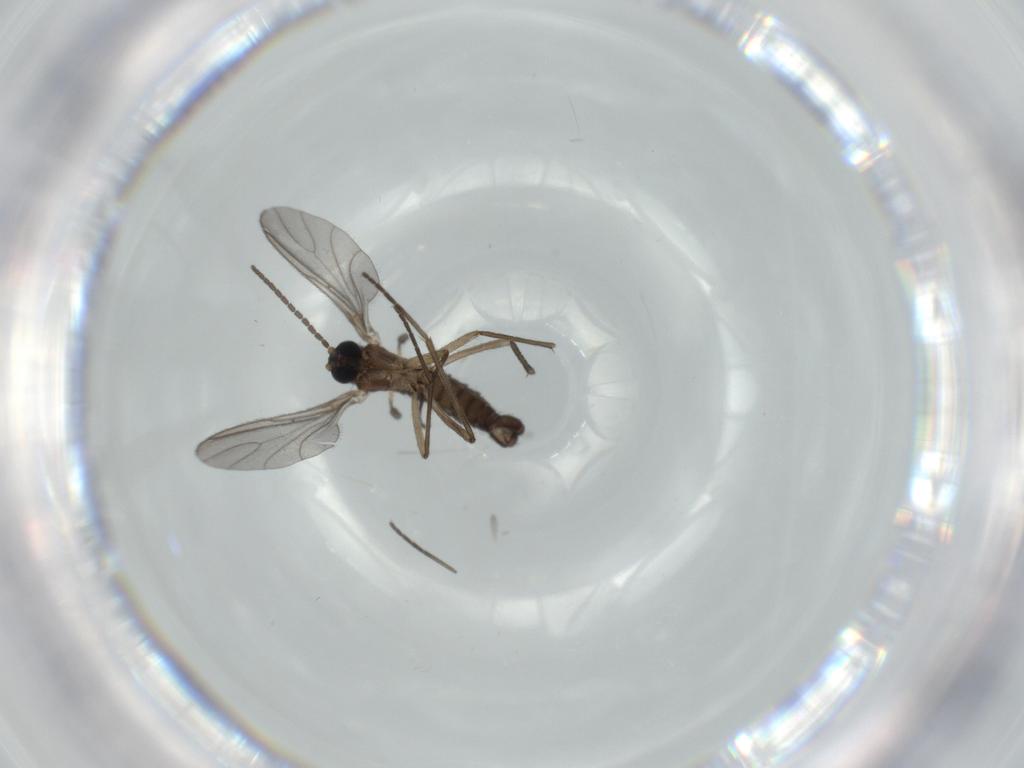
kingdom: Animalia
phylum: Arthropoda
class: Insecta
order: Diptera
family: Sciaridae
